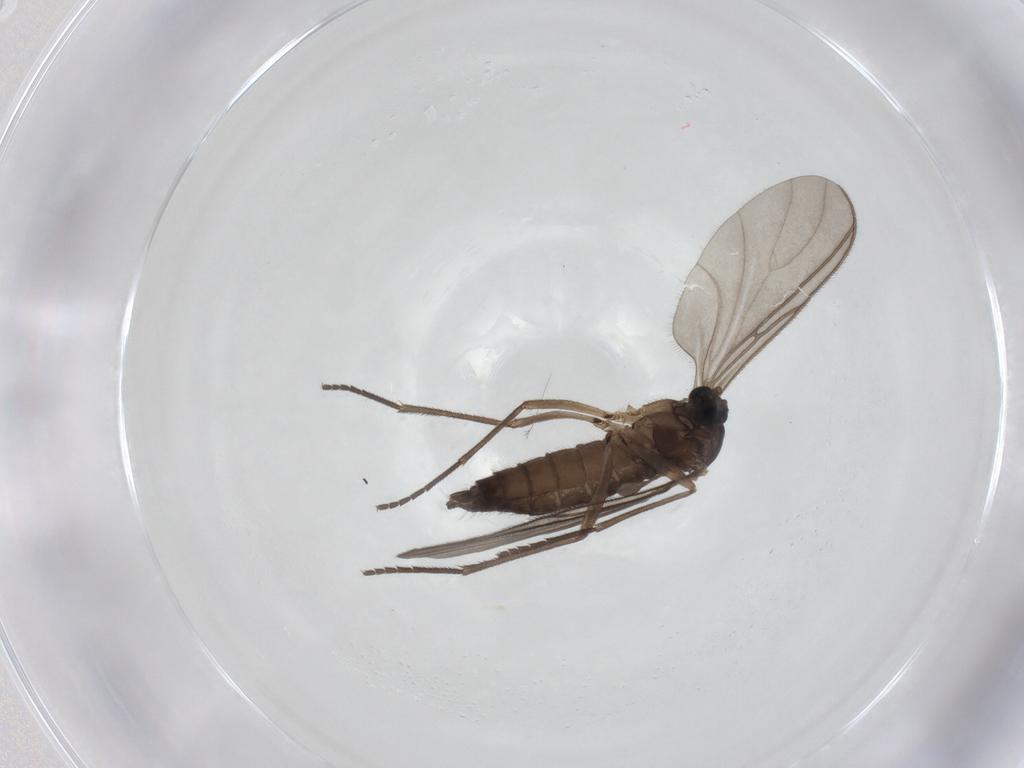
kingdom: Animalia
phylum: Arthropoda
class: Insecta
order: Diptera
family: Sciaridae
